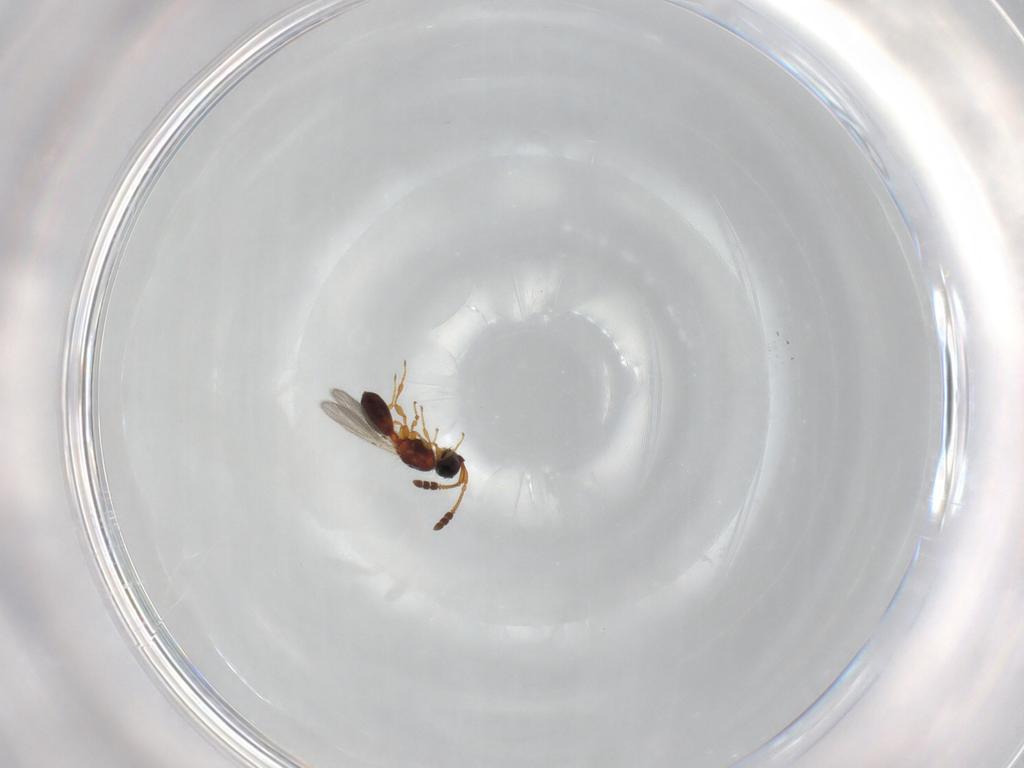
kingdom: Animalia
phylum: Arthropoda
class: Insecta
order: Hymenoptera
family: Diapriidae
